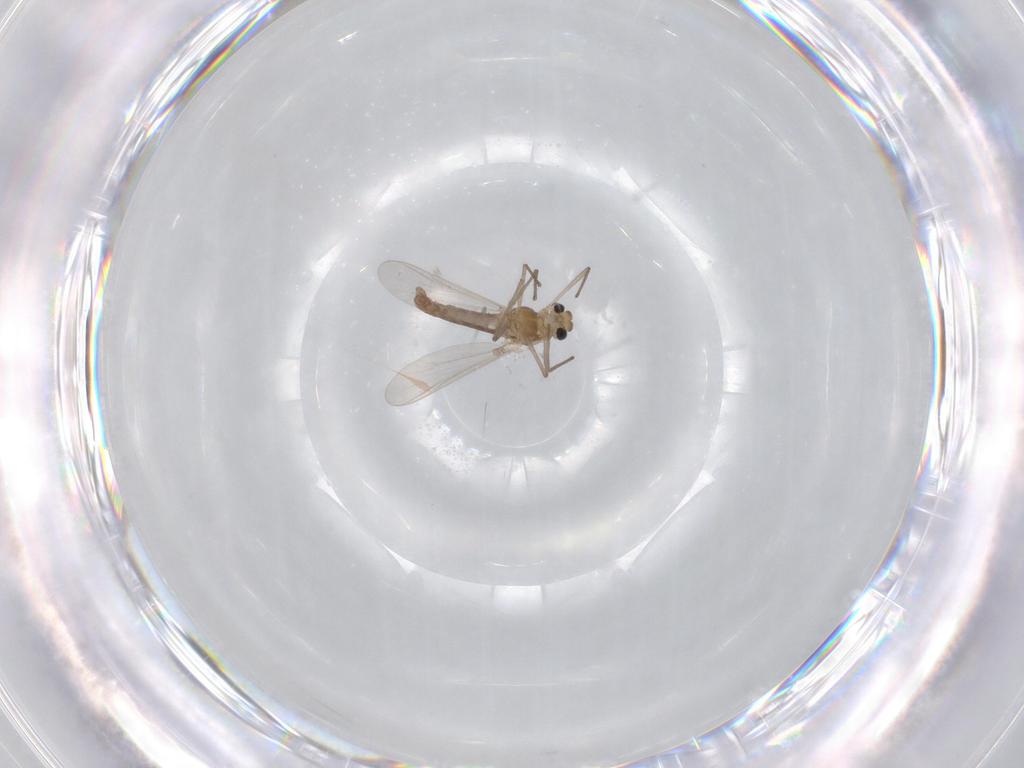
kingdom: Animalia
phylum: Arthropoda
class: Insecta
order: Diptera
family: Chironomidae
